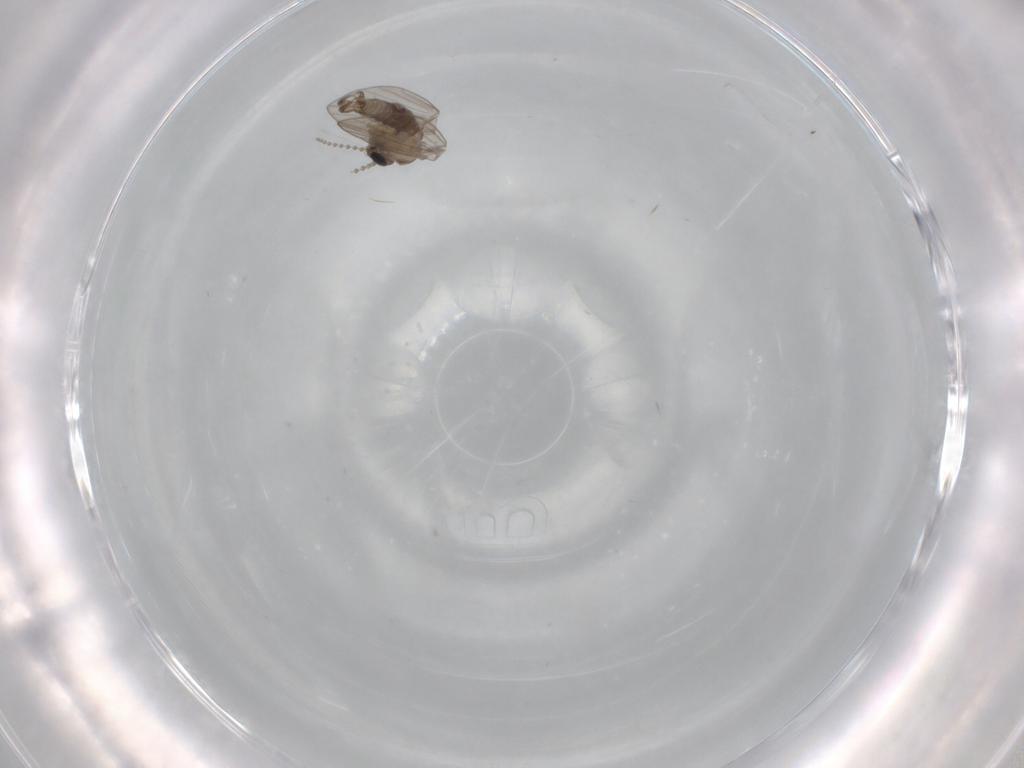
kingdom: Animalia
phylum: Arthropoda
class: Insecta
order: Diptera
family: Psychodidae
